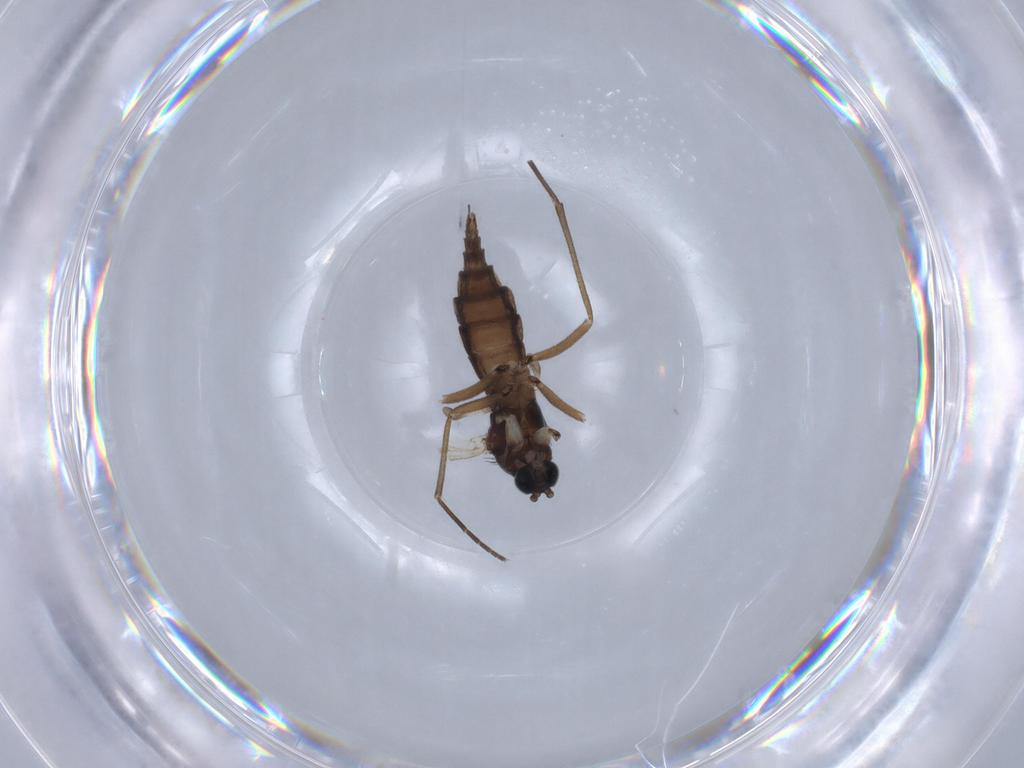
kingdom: Animalia
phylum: Arthropoda
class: Insecta
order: Diptera
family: Sciaridae
